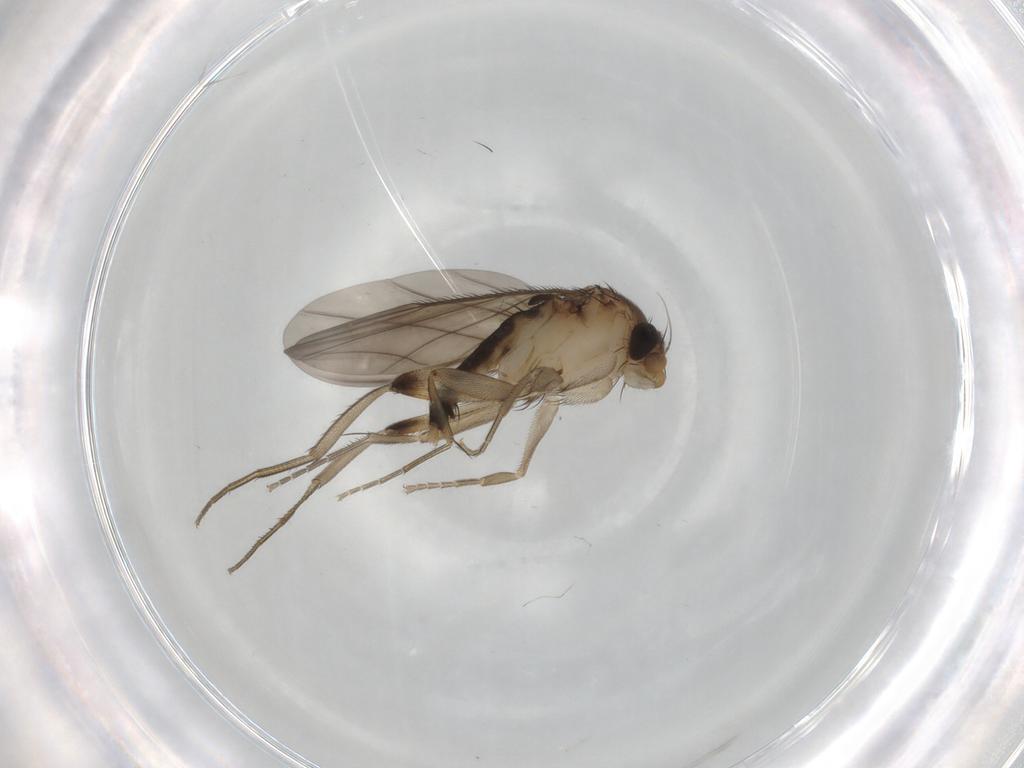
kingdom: Animalia
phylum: Arthropoda
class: Insecta
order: Diptera
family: Phoridae
